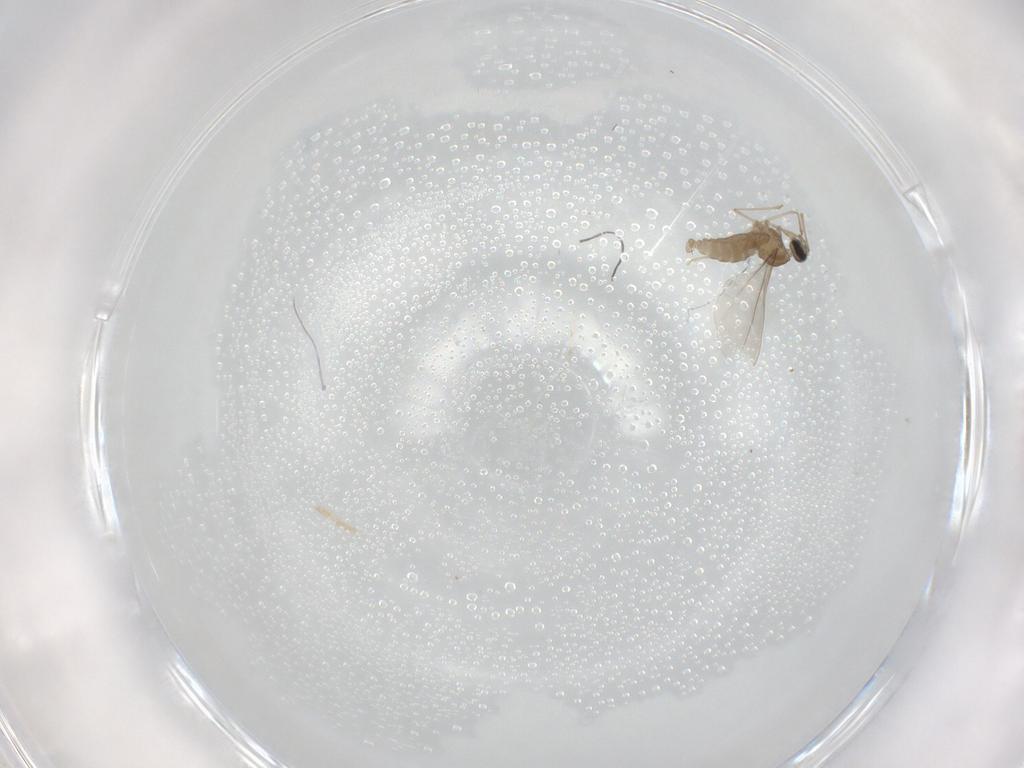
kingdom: Animalia
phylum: Arthropoda
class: Insecta
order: Diptera
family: Cecidomyiidae
